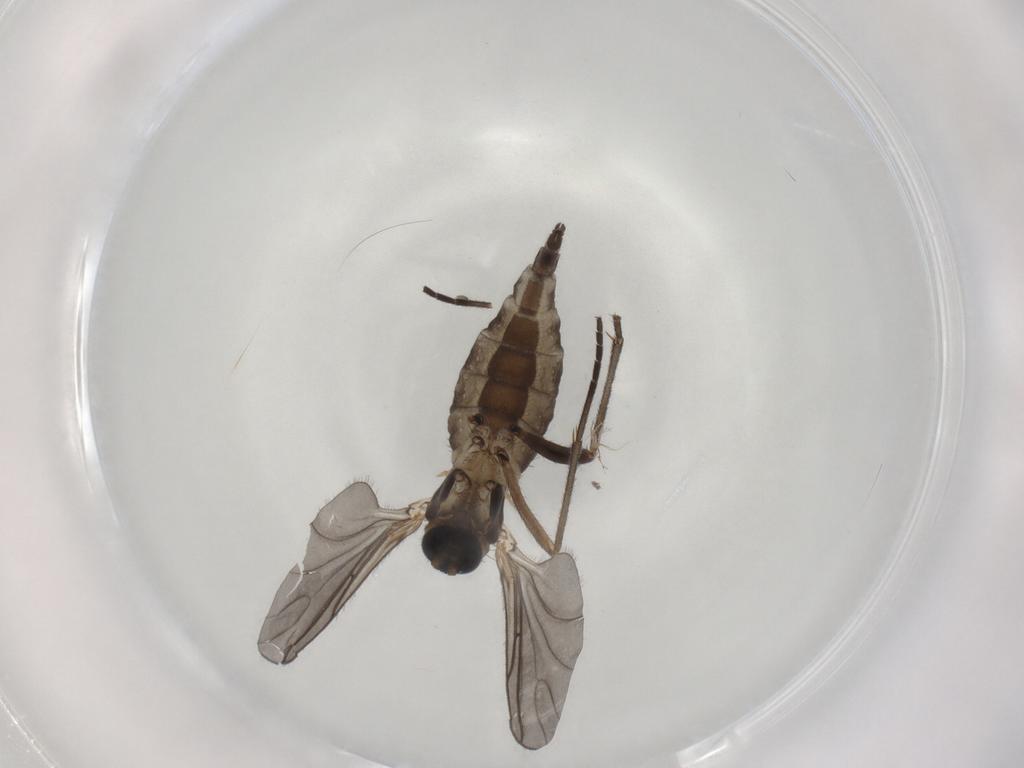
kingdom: Animalia
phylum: Arthropoda
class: Insecta
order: Diptera
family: Sciaridae
